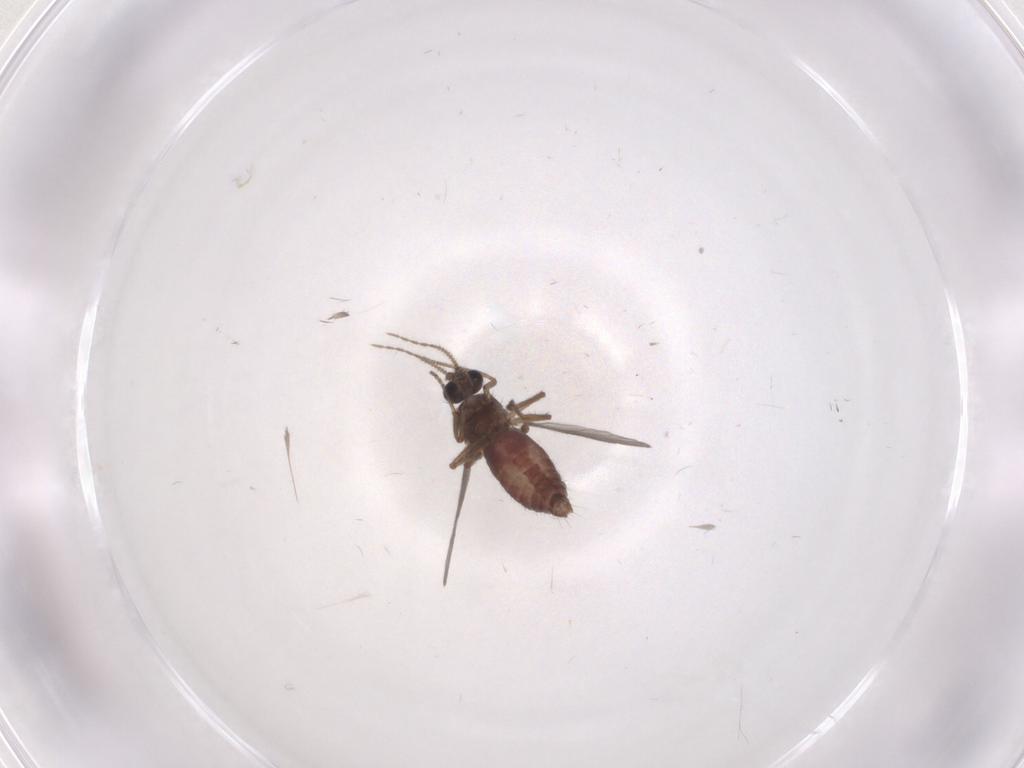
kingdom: Animalia
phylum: Arthropoda
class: Insecta
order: Diptera
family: Ceratopogonidae
